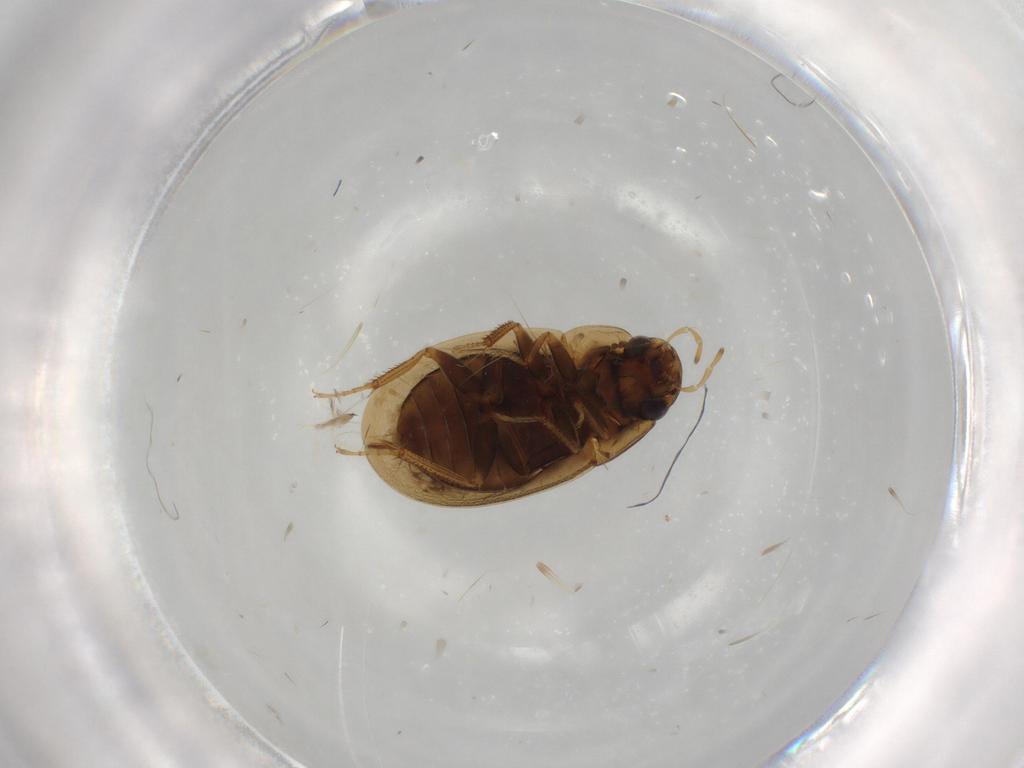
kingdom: Animalia
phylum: Arthropoda
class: Insecta
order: Coleoptera
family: Hydrophilidae
